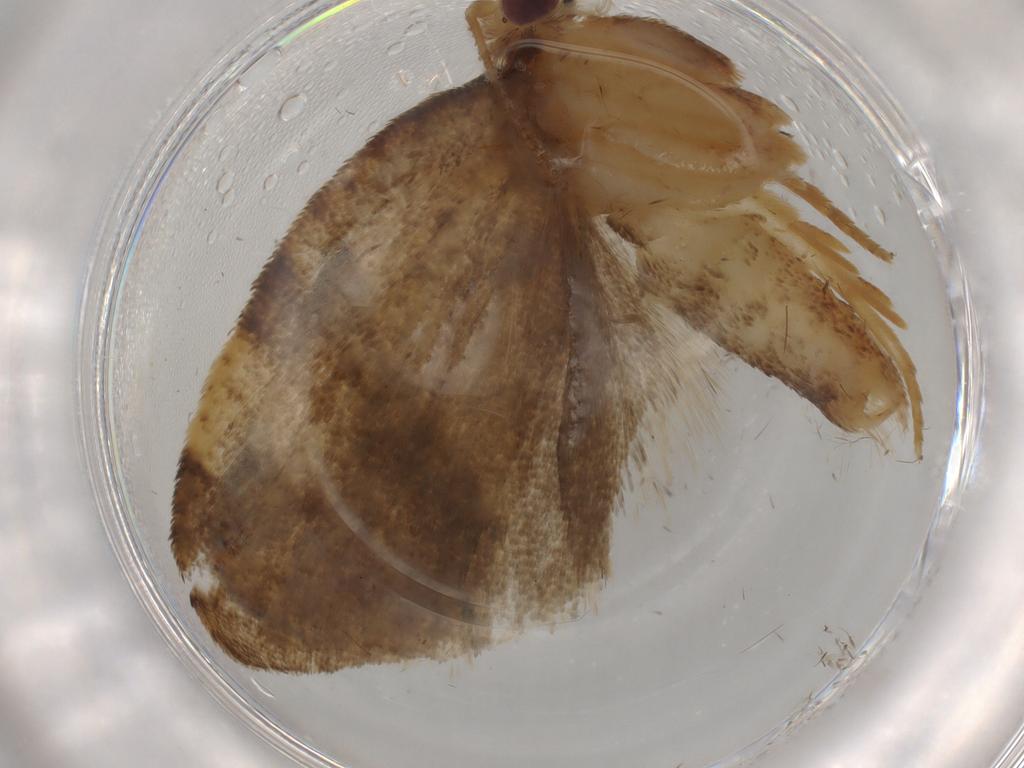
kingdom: Animalia
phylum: Arthropoda
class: Insecta
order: Lepidoptera
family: Tortricidae
